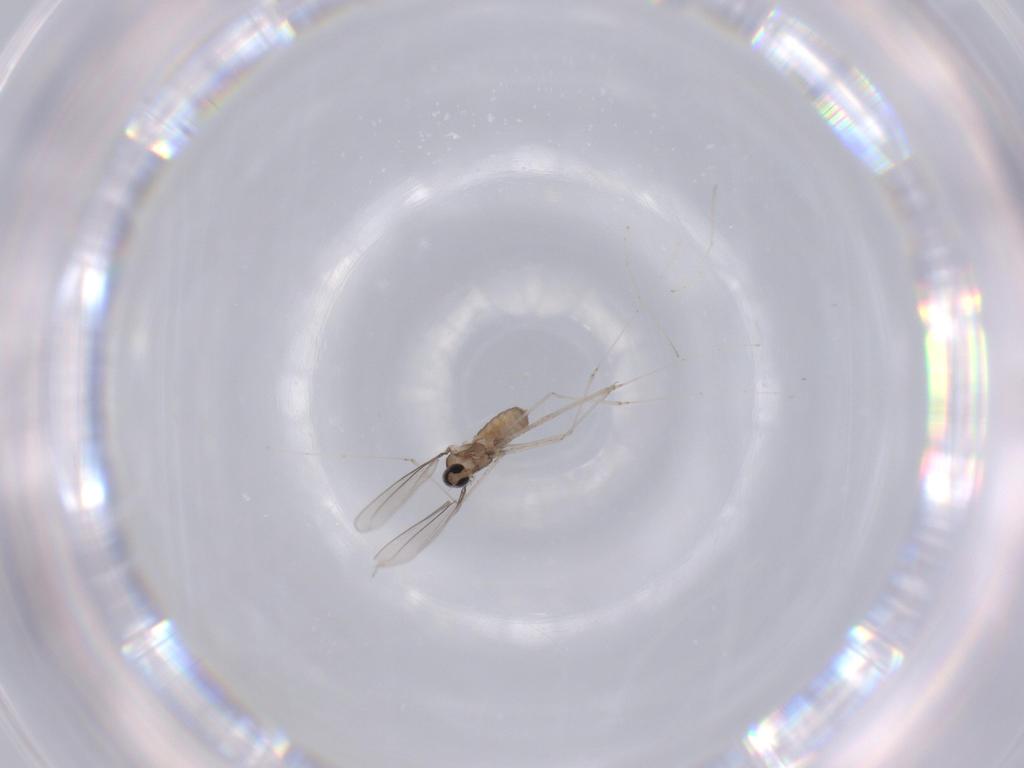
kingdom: Animalia
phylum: Arthropoda
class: Insecta
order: Diptera
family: Cecidomyiidae
